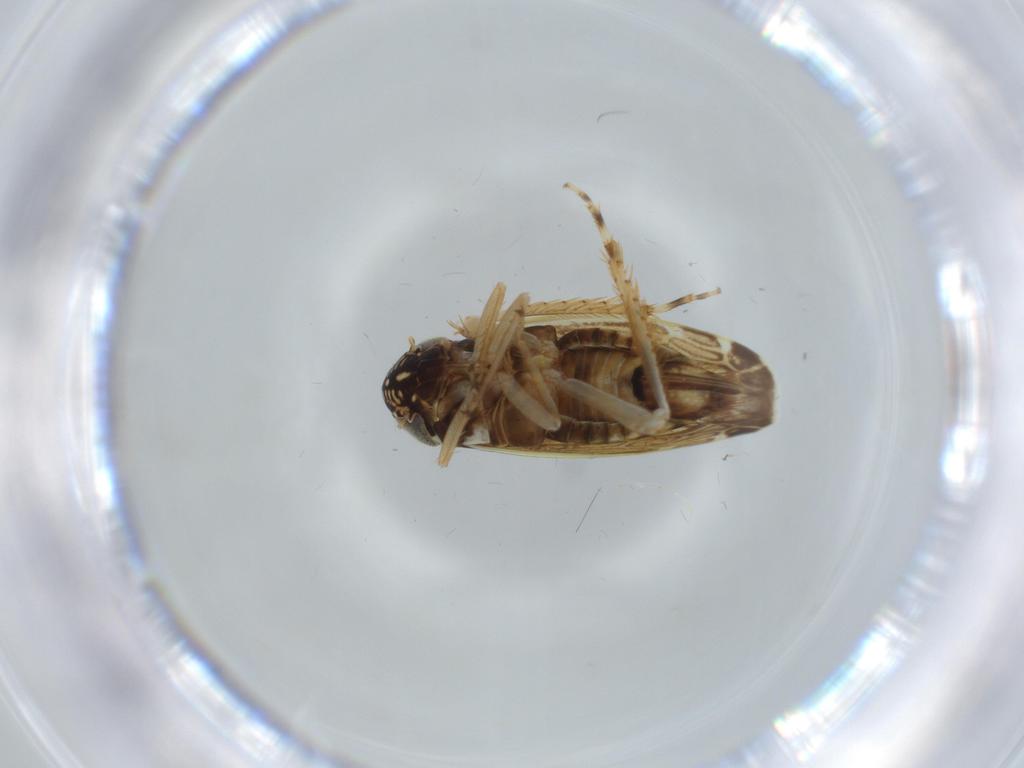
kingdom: Animalia
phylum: Arthropoda
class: Insecta
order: Hemiptera
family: Cicadellidae
